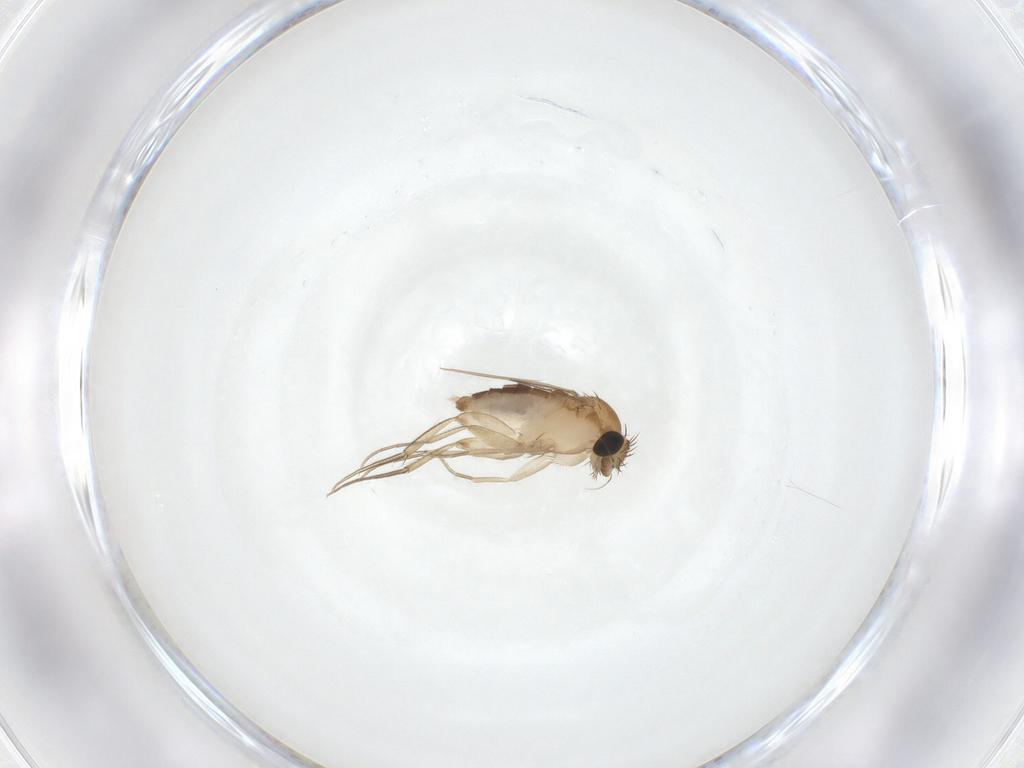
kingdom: Animalia
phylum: Arthropoda
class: Insecta
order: Diptera
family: Phoridae
